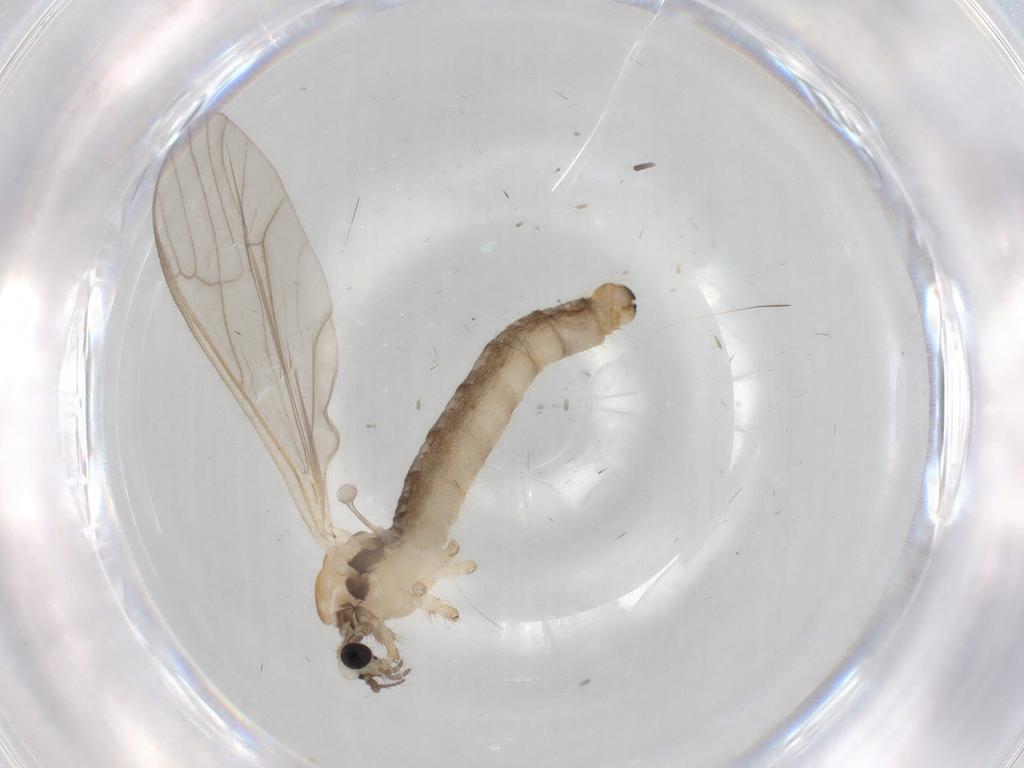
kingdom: Animalia
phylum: Arthropoda
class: Insecta
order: Diptera
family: Limoniidae
